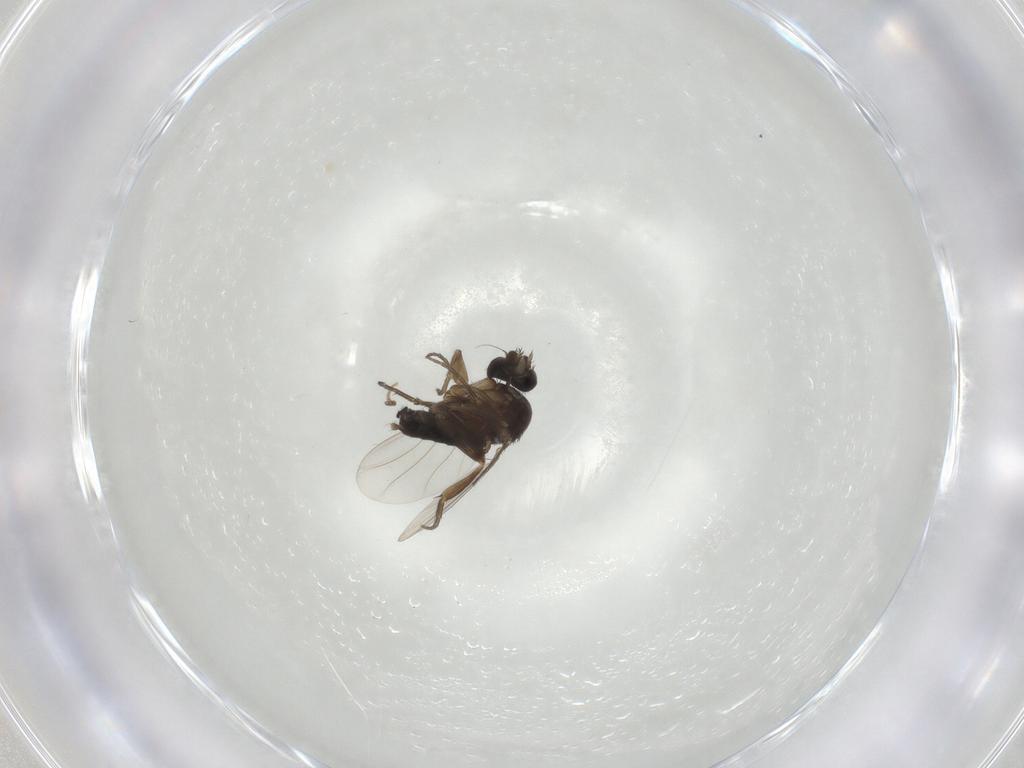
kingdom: Animalia
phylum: Arthropoda
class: Insecta
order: Diptera
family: Phoridae
